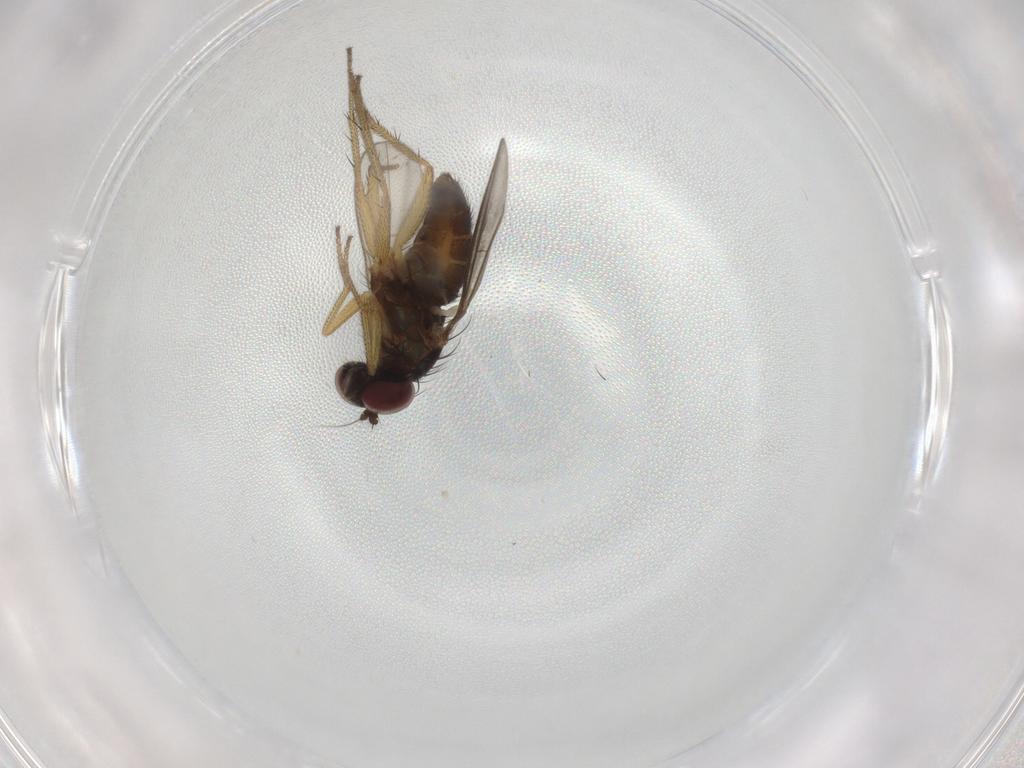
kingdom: Animalia
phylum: Arthropoda
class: Insecta
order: Diptera
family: Chironomidae
